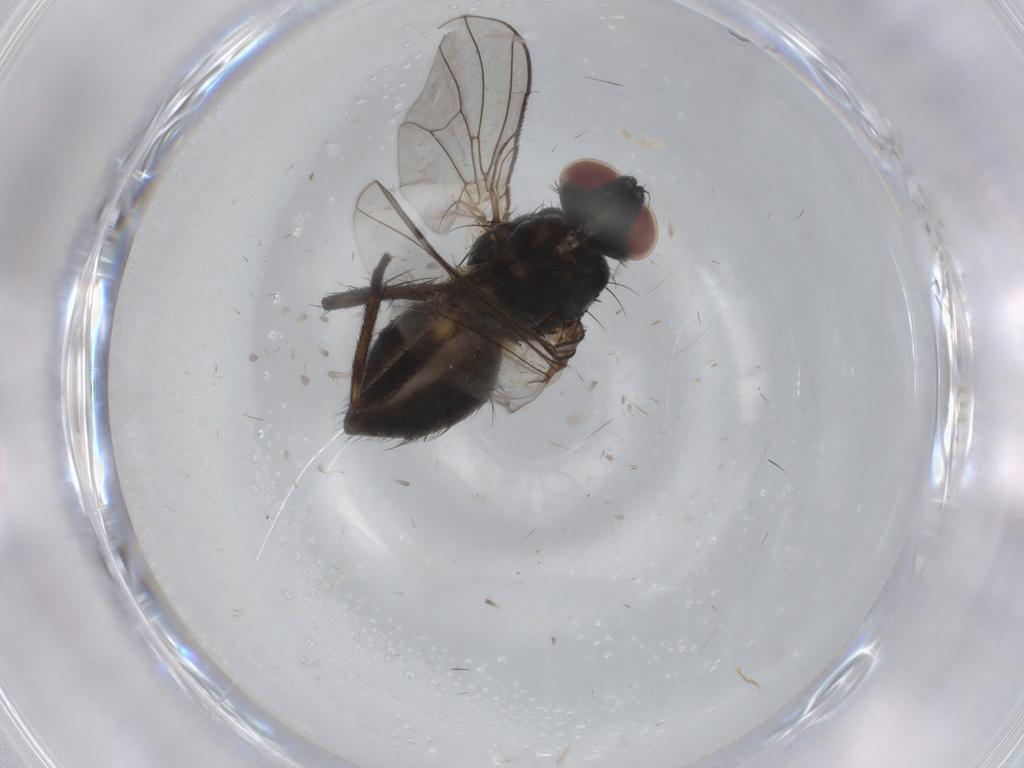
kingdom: Animalia
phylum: Arthropoda
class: Insecta
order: Diptera
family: Muscidae
